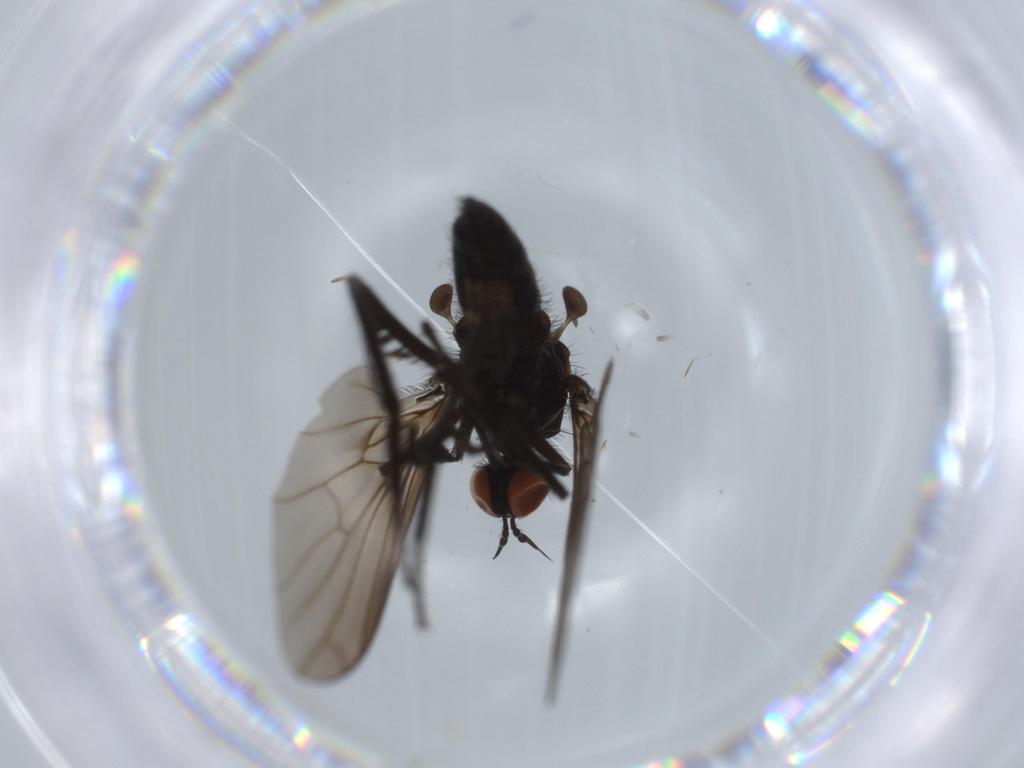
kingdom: Animalia
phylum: Arthropoda
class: Insecta
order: Diptera
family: Empididae
